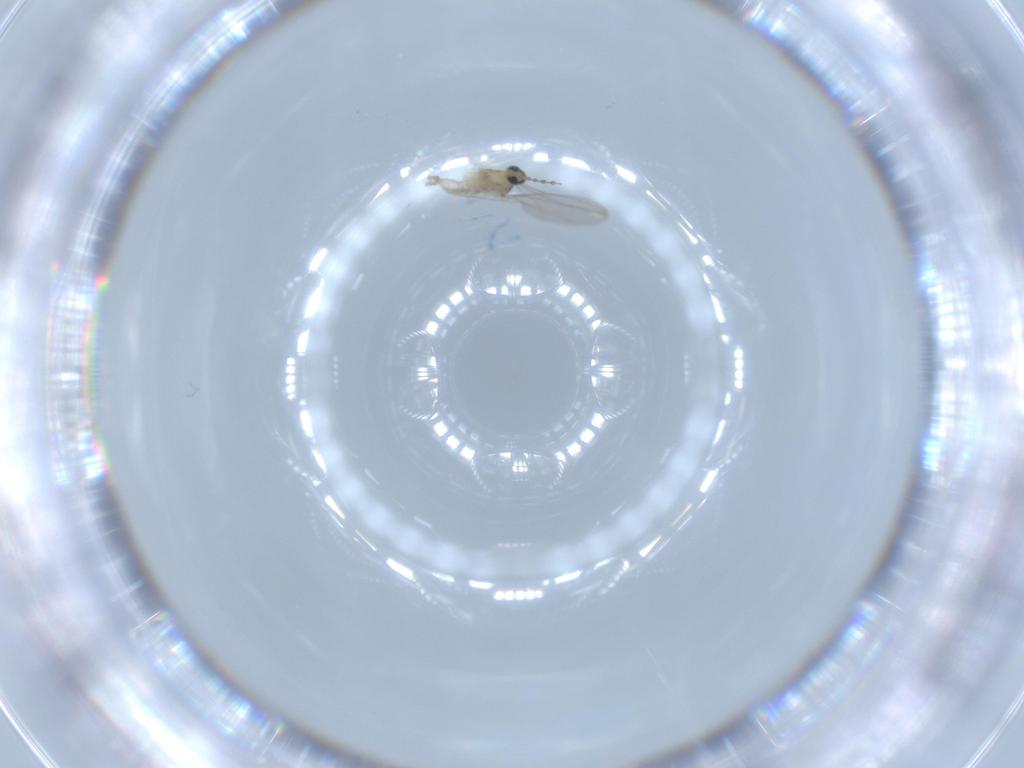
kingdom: Animalia
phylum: Arthropoda
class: Insecta
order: Diptera
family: Cecidomyiidae
